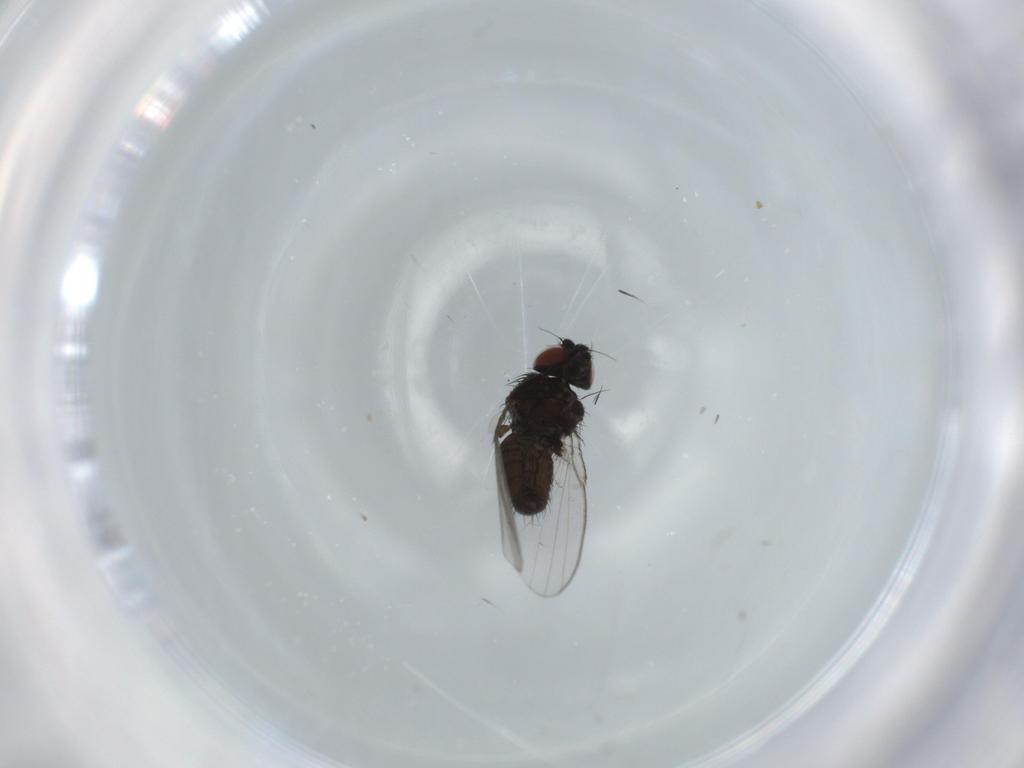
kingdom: Animalia
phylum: Arthropoda
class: Insecta
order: Diptera
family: Milichiidae
